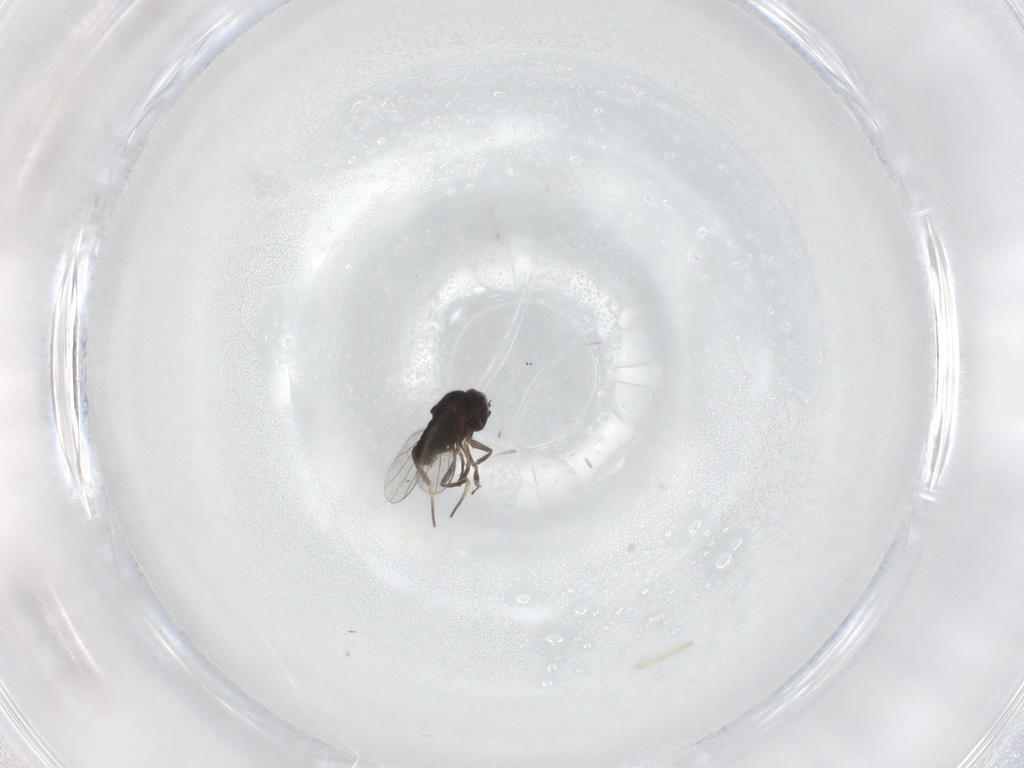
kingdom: Animalia
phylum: Arthropoda
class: Insecta
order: Diptera
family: Dolichopodidae
